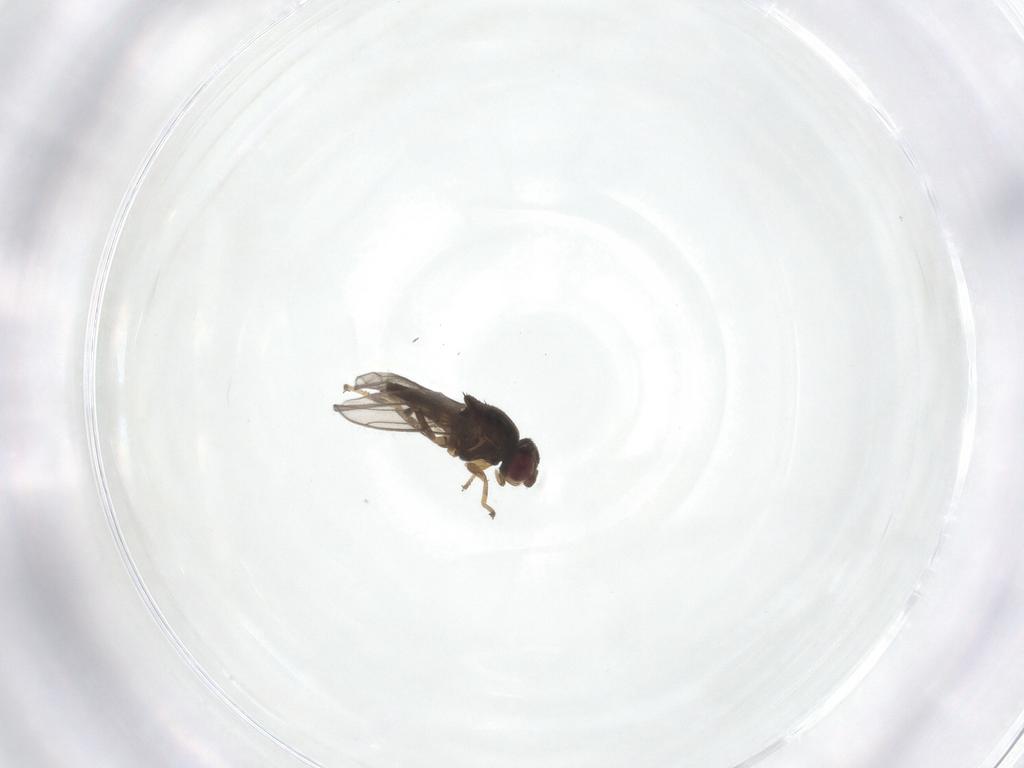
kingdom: Animalia
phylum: Arthropoda
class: Insecta
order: Diptera
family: Chloropidae
